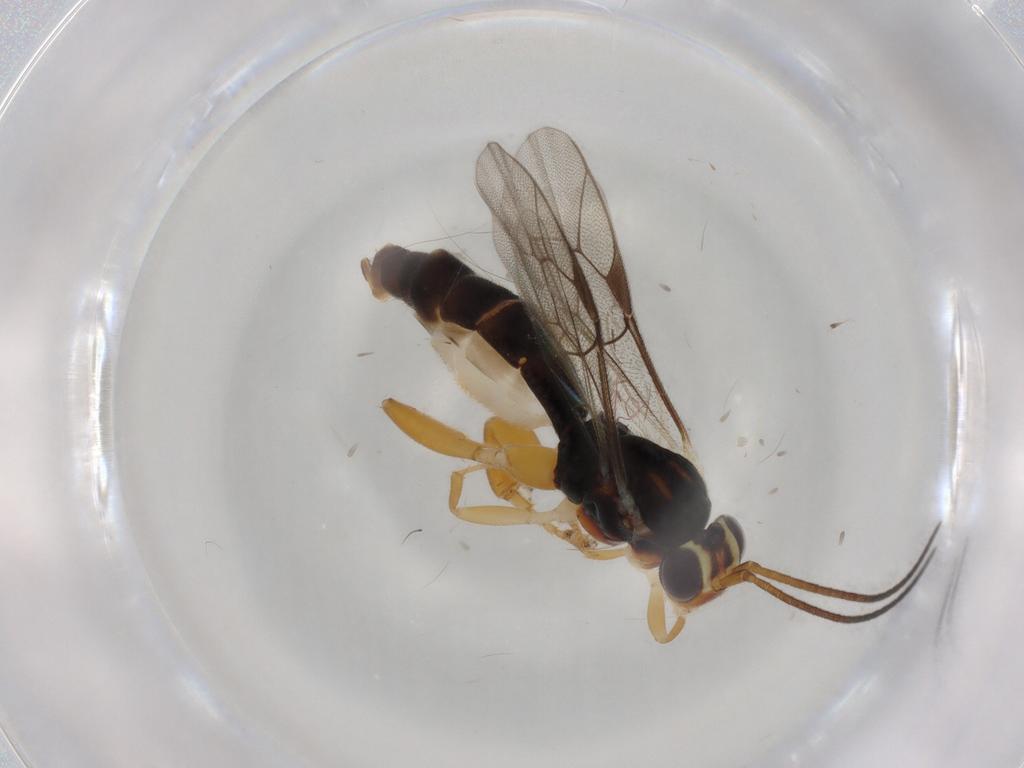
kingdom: Animalia
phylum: Arthropoda
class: Insecta
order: Hymenoptera
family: Ichneumonidae
